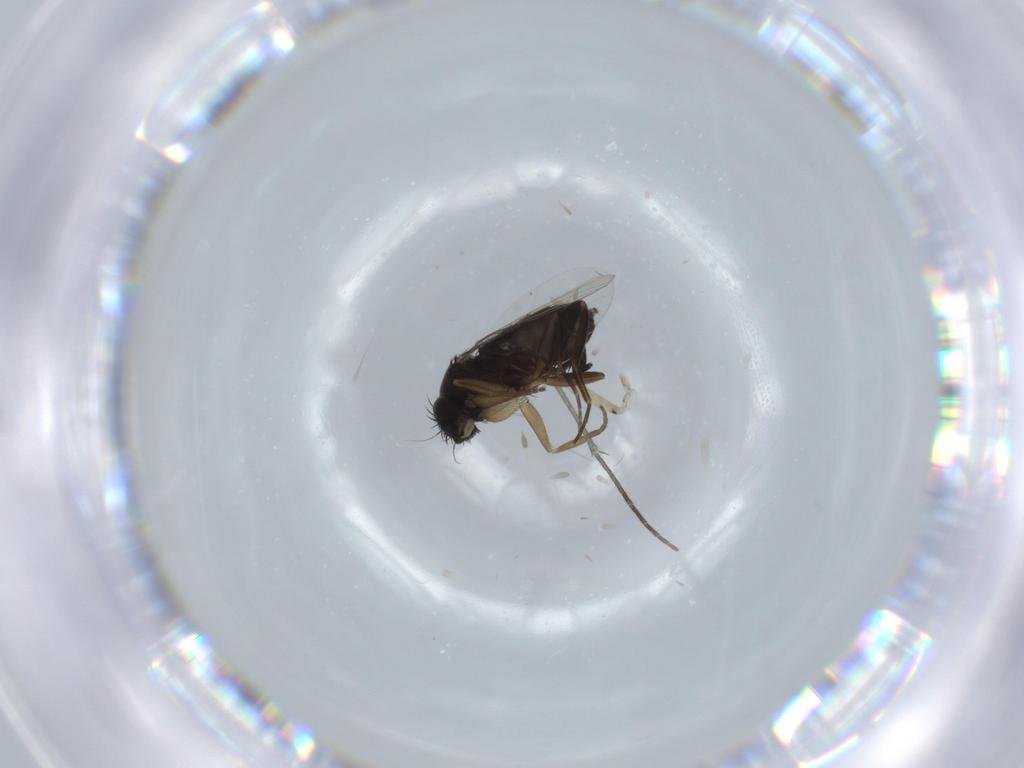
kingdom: Animalia
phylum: Arthropoda
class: Insecta
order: Diptera
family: Phoridae
